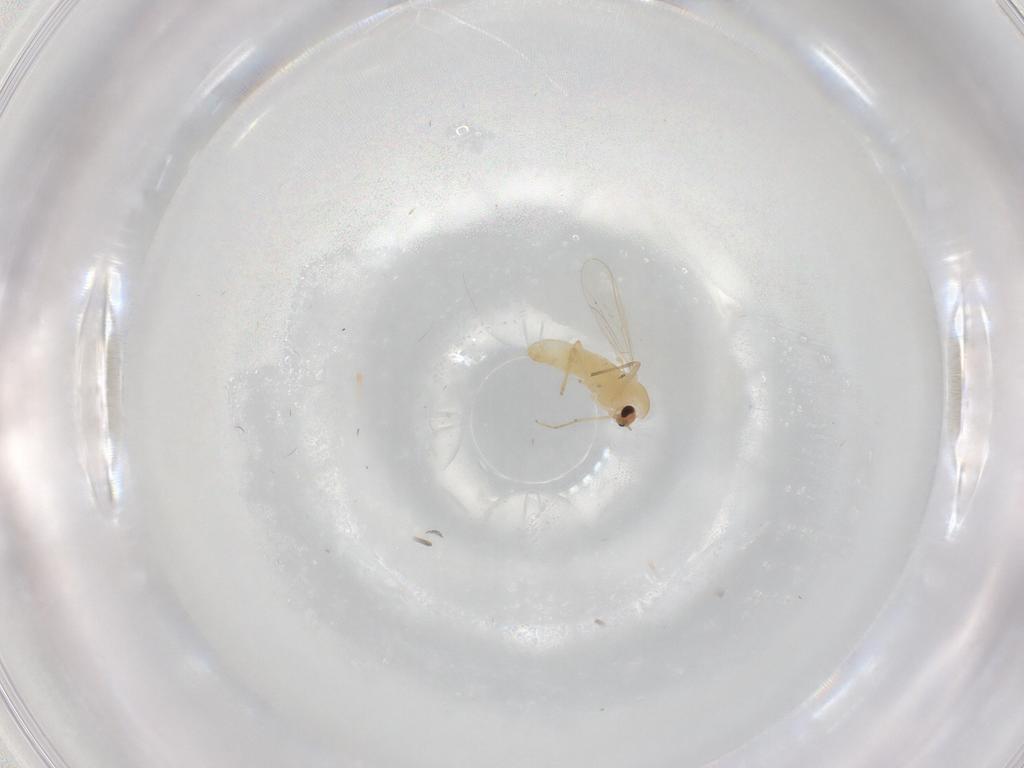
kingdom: Animalia
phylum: Arthropoda
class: Insecta
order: Diptera
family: Chironomidae
